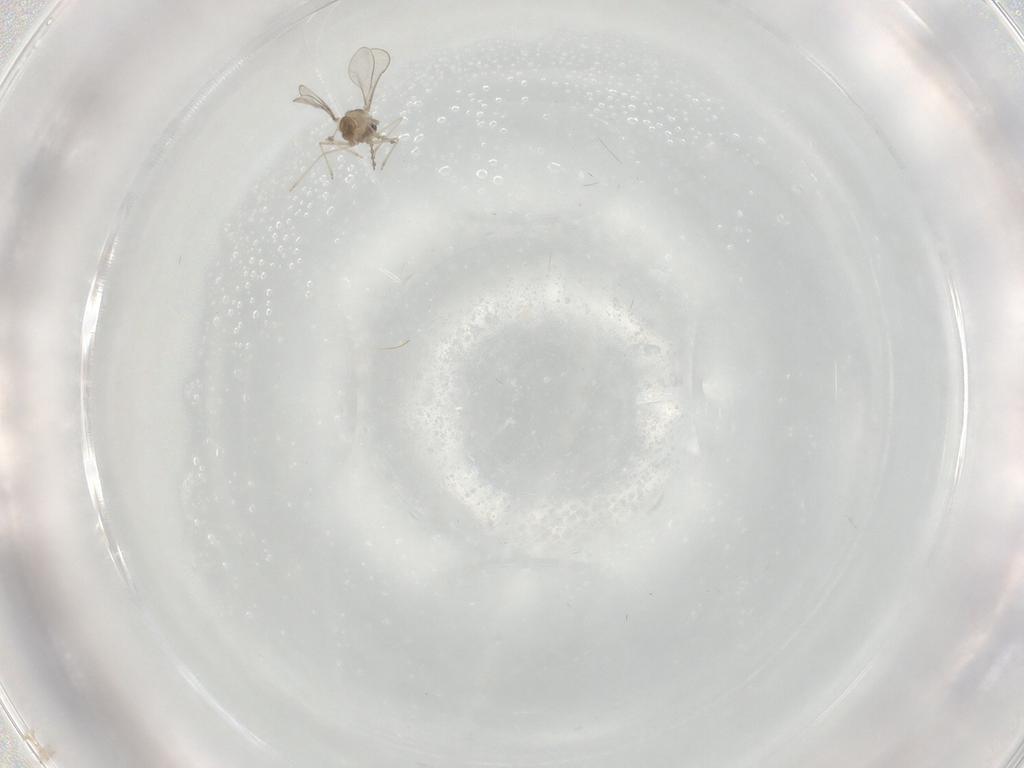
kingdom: Animalia
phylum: Arthropoda
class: Insecta
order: Diptera
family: Cecidomyiidae
